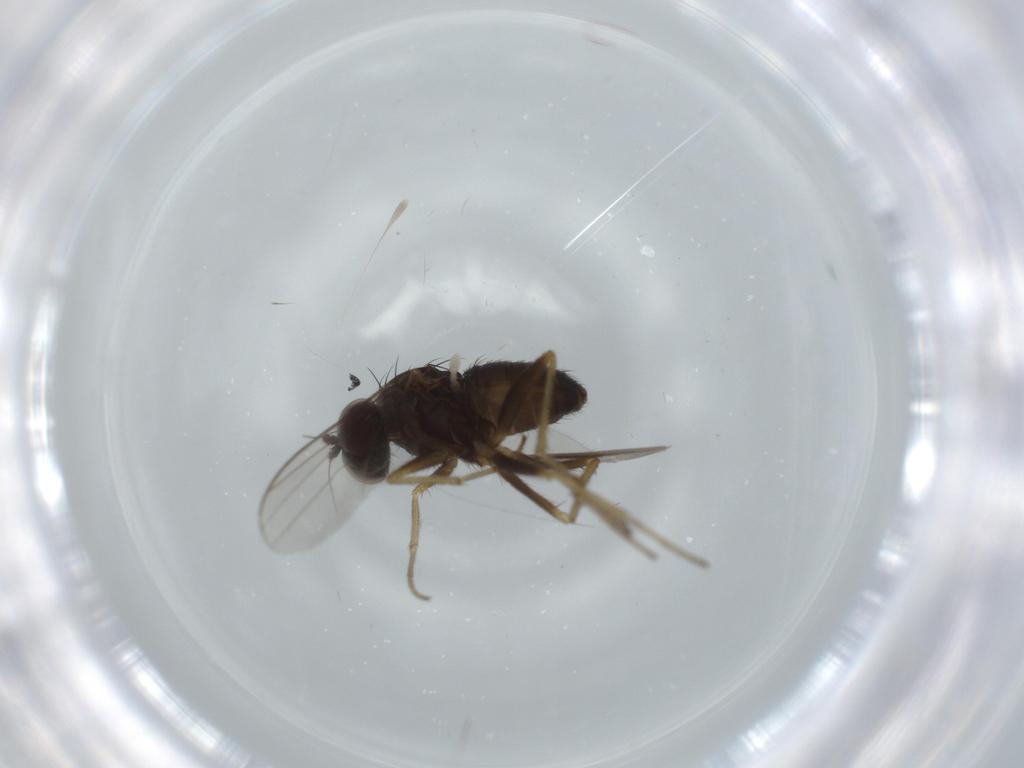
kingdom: Animalia
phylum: Arthropoda
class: Insecta
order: Diptera
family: Dolichopodidae
